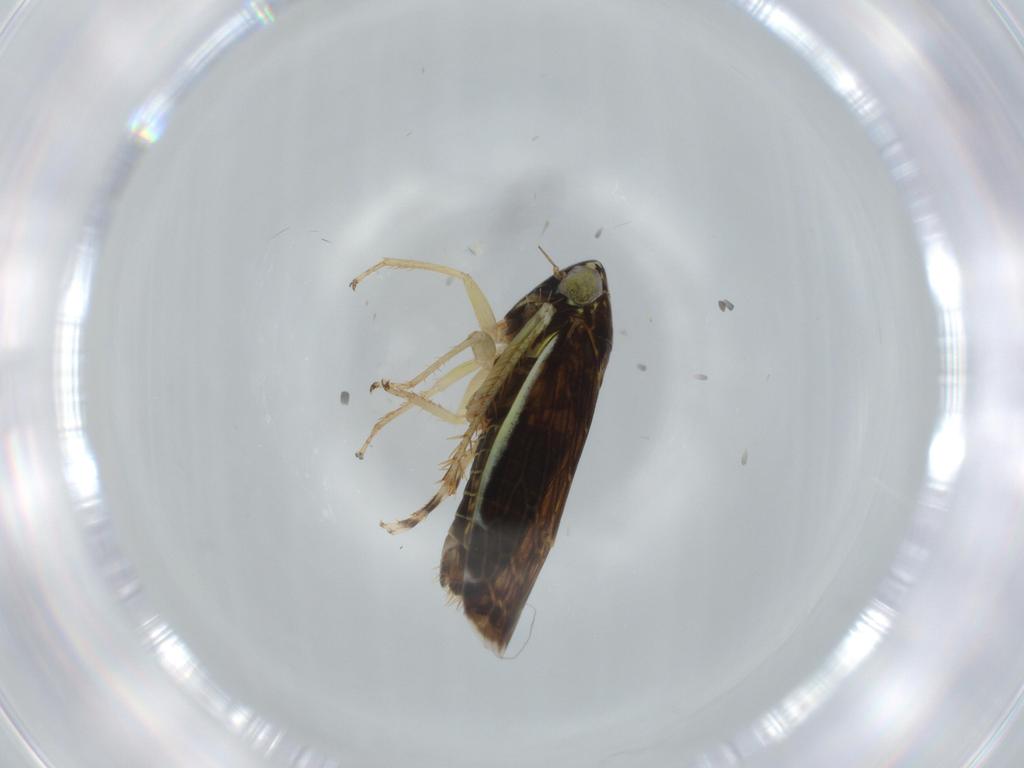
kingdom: Animalia
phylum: Arthropoda
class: Insecta
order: Hemiptera
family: Cicadellidae
